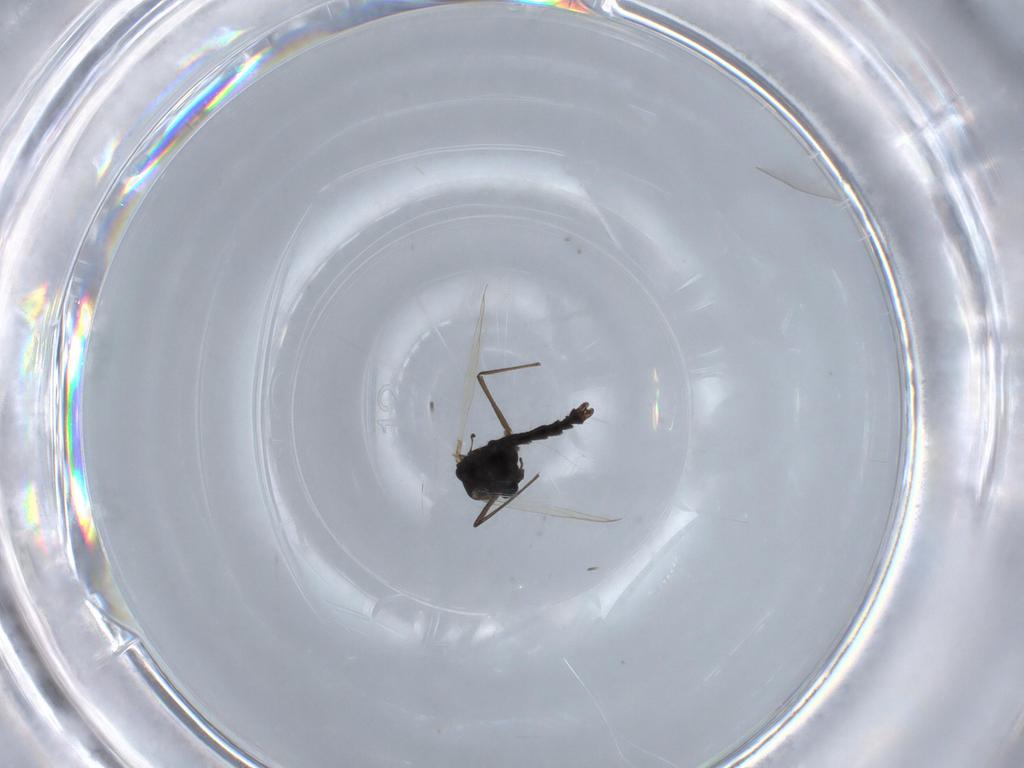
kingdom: Animalia
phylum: Arthropoda
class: Insecta
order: Diptera
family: Chironomidae
